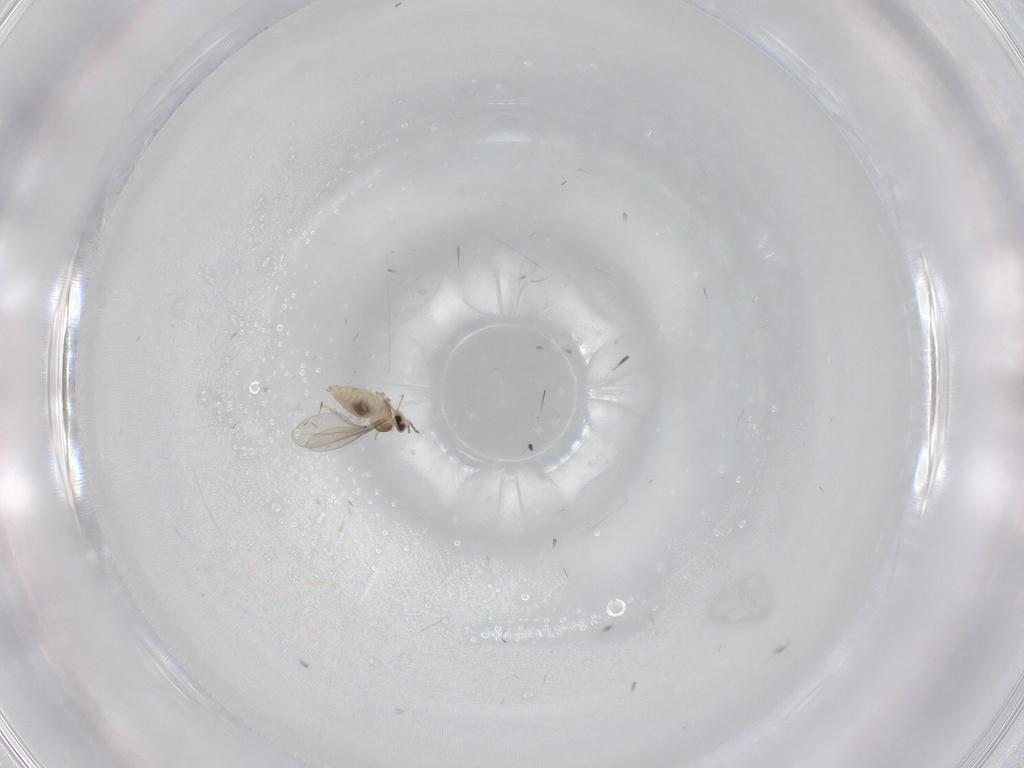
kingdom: Animalia
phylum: Arthropoda
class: Insecta
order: Diptera
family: Cecidomyiidae
